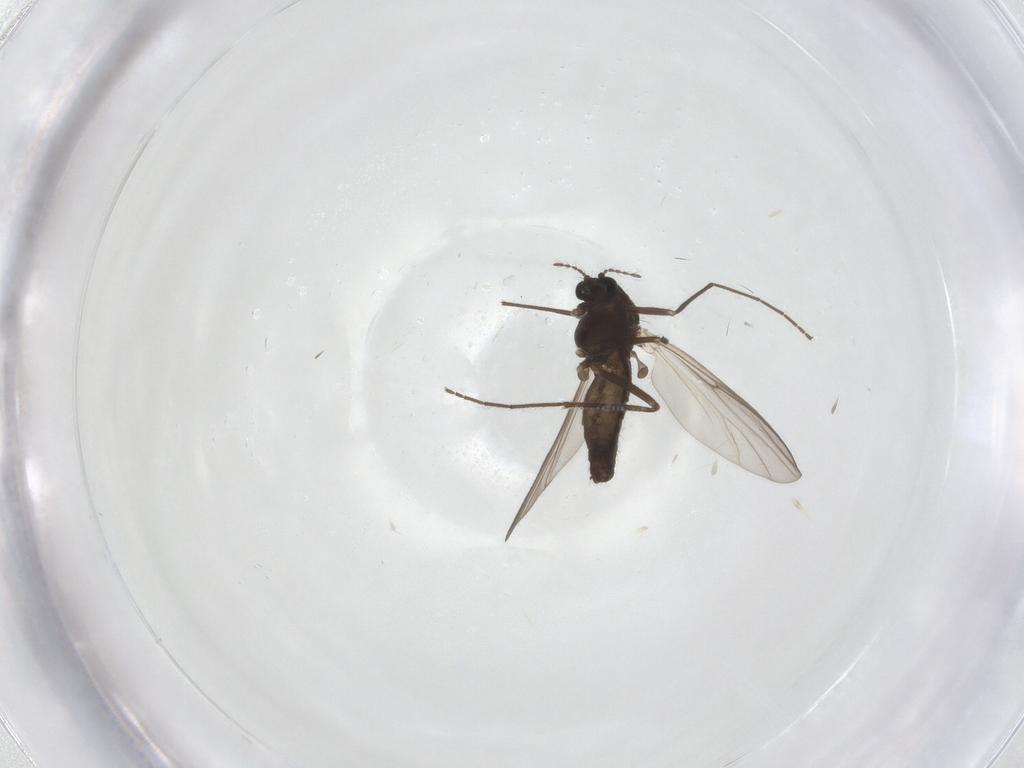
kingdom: Animalia
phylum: Arthropoda
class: Insecta
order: Diptera
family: Chironomidae
